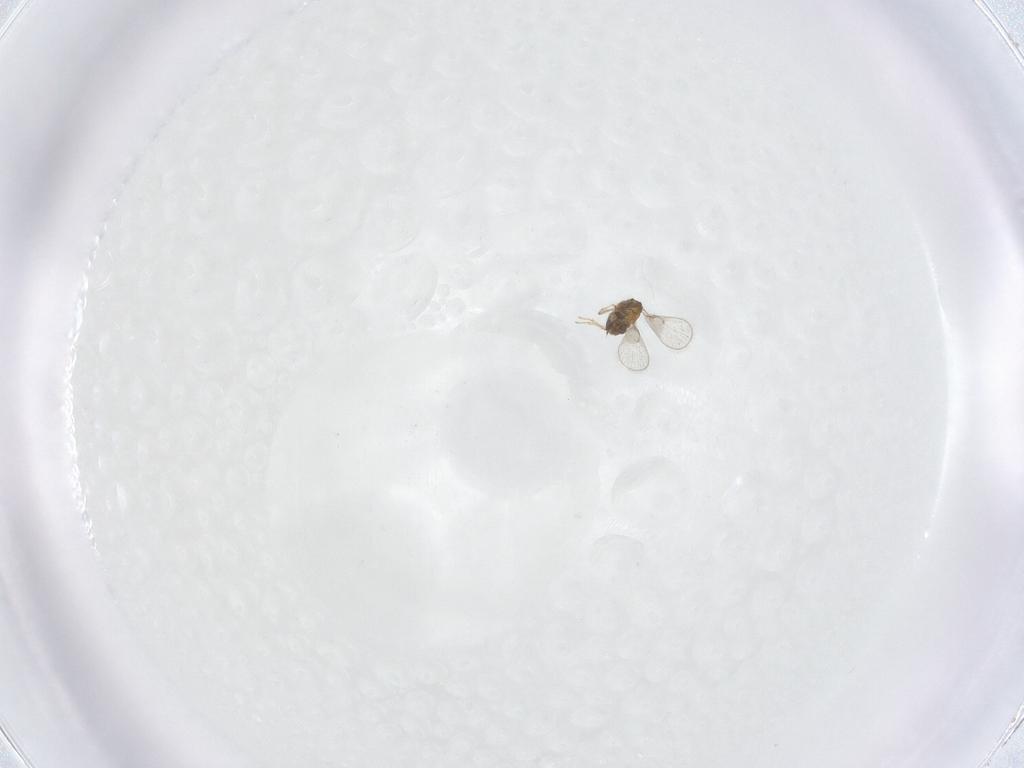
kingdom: Animalia
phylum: Arthropoda
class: Insecta
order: Hymenoptera
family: Trichogrammatidae
